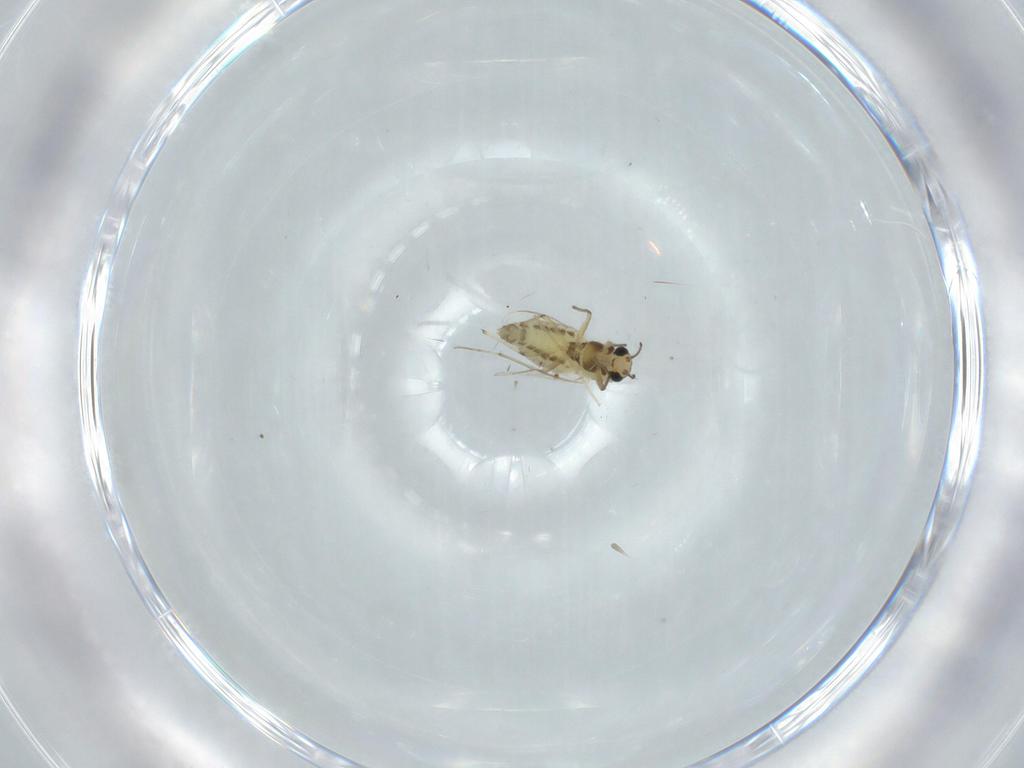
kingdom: Animalia
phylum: Arthropoda
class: Insecta
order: Diptera
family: Chironomidae
